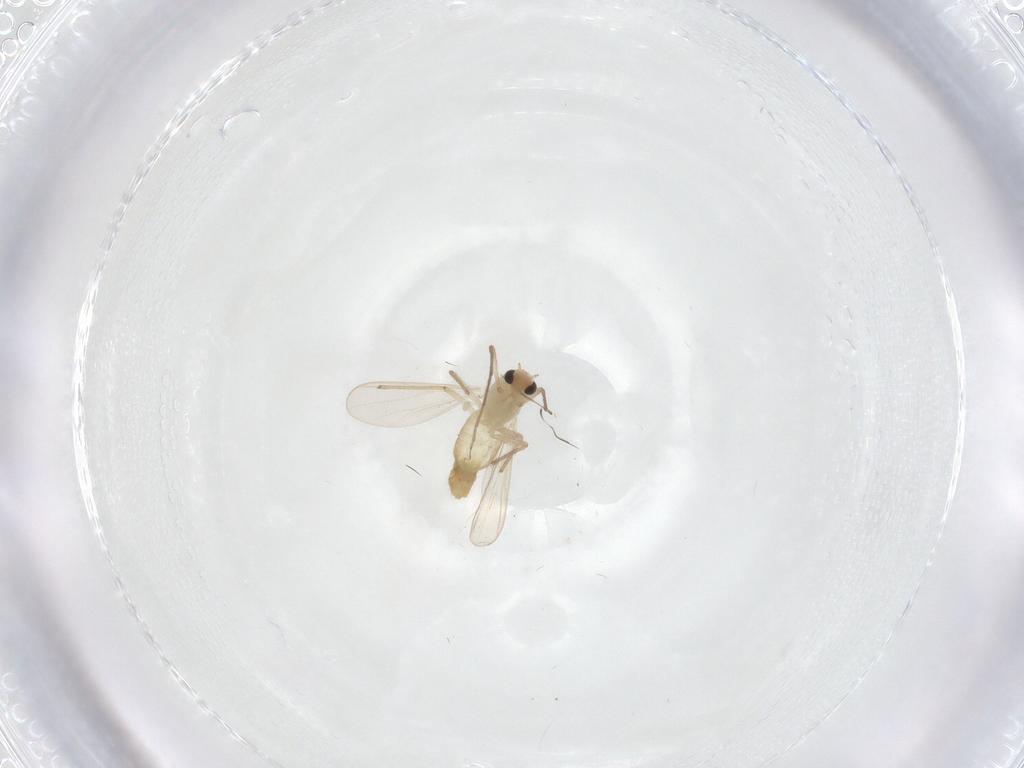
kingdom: Animalia
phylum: Arthropoda
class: Insecta
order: Diptera
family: Chironomidae
